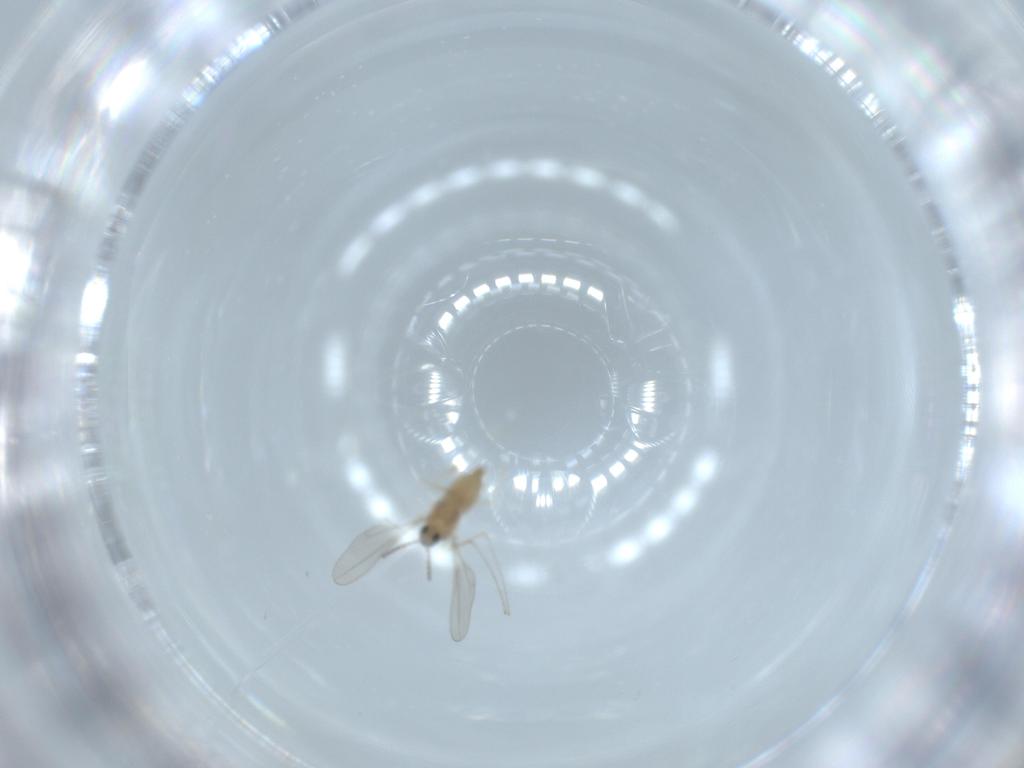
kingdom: Animalia
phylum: Arthropoda
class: Insecta
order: Diptera
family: Cecidomyiidae
